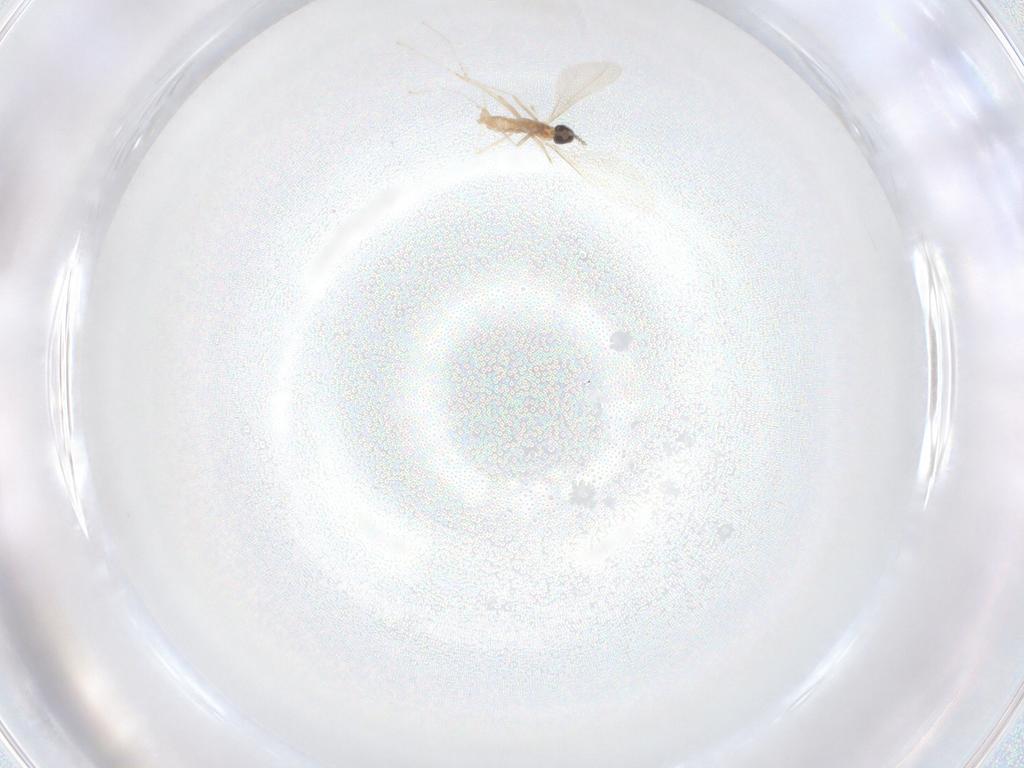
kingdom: Animalia
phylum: Arthropoda
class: Insecta
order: Diptera
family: Cecidomyiidae
